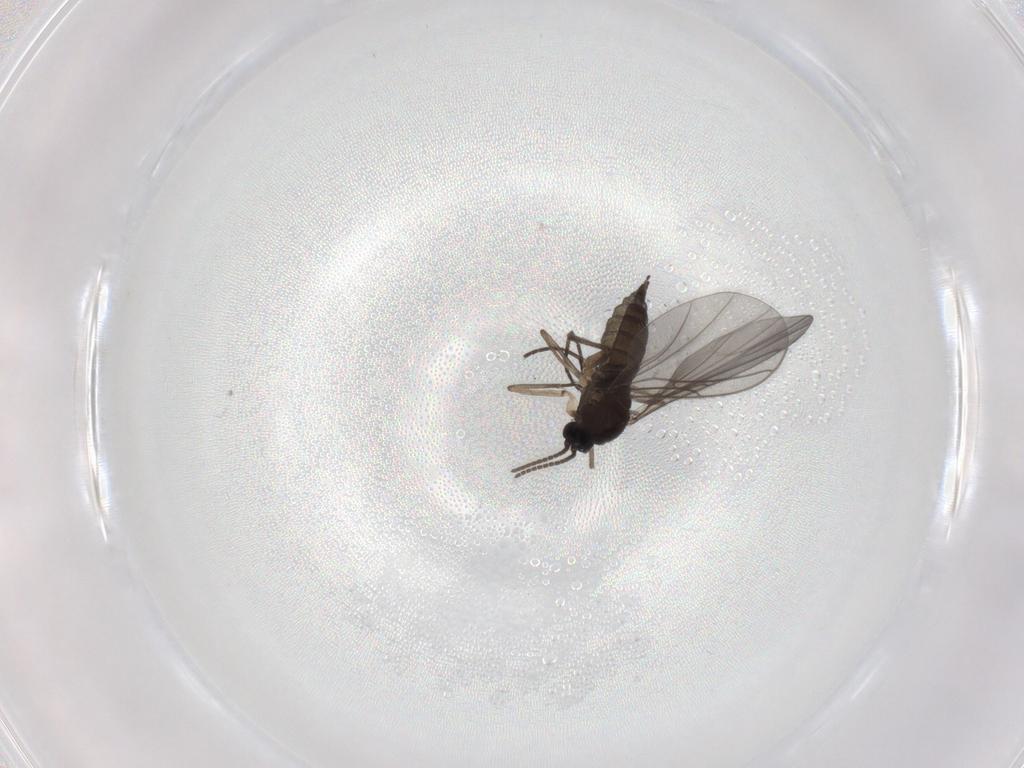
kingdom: Animalia
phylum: Arthropoda
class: Insecta
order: Diptera
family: Sciaridae
